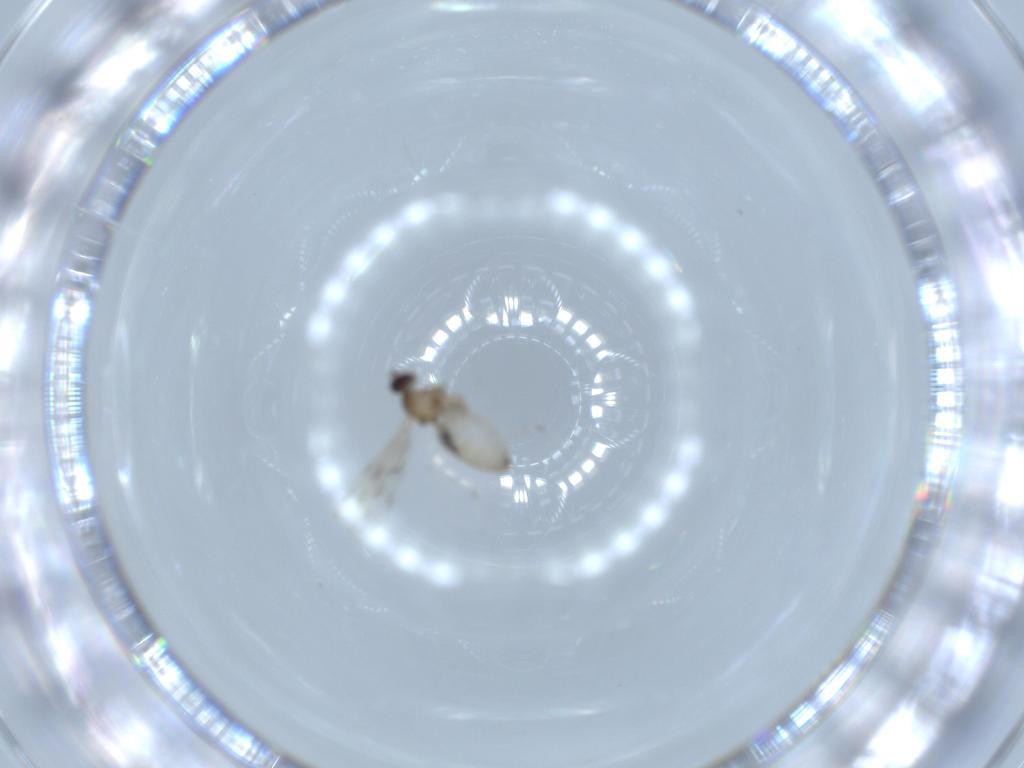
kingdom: Animalia
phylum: Arthropoda
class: Insecta
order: Diptera
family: Cecidomyiidae
